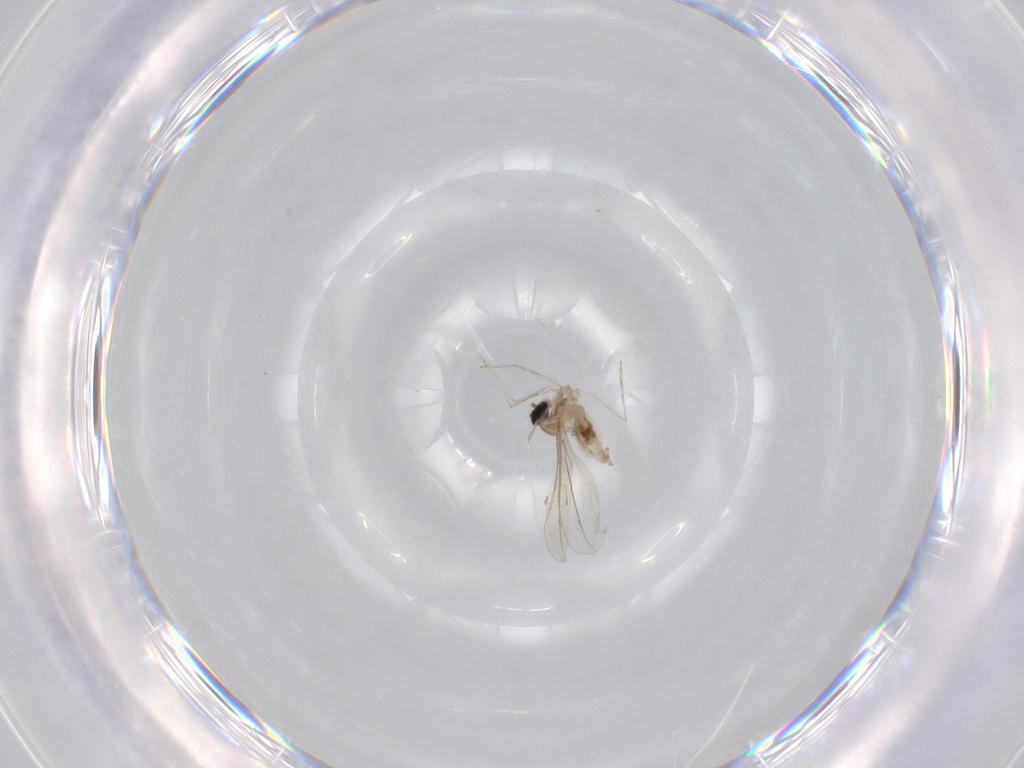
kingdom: Animalia
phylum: Arthropoda
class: Insecta
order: Diptera
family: Cecidomyiidae
